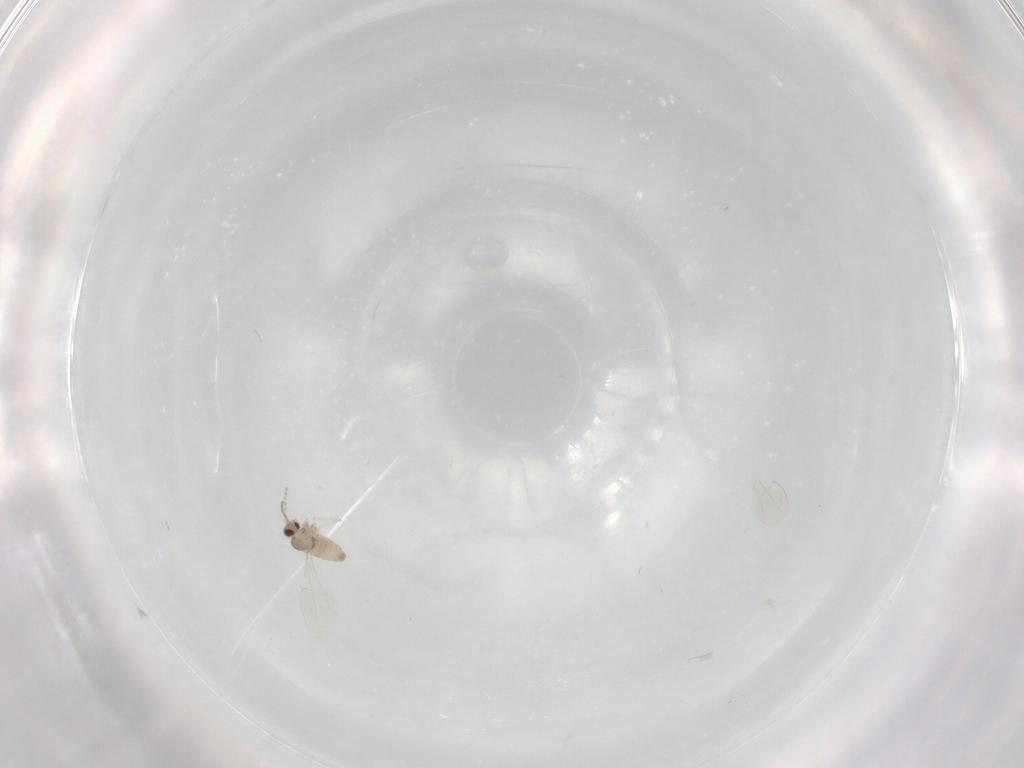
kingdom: Animalia
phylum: Arthropoda
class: Insecta
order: Diptera
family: Cecidomyiidae
